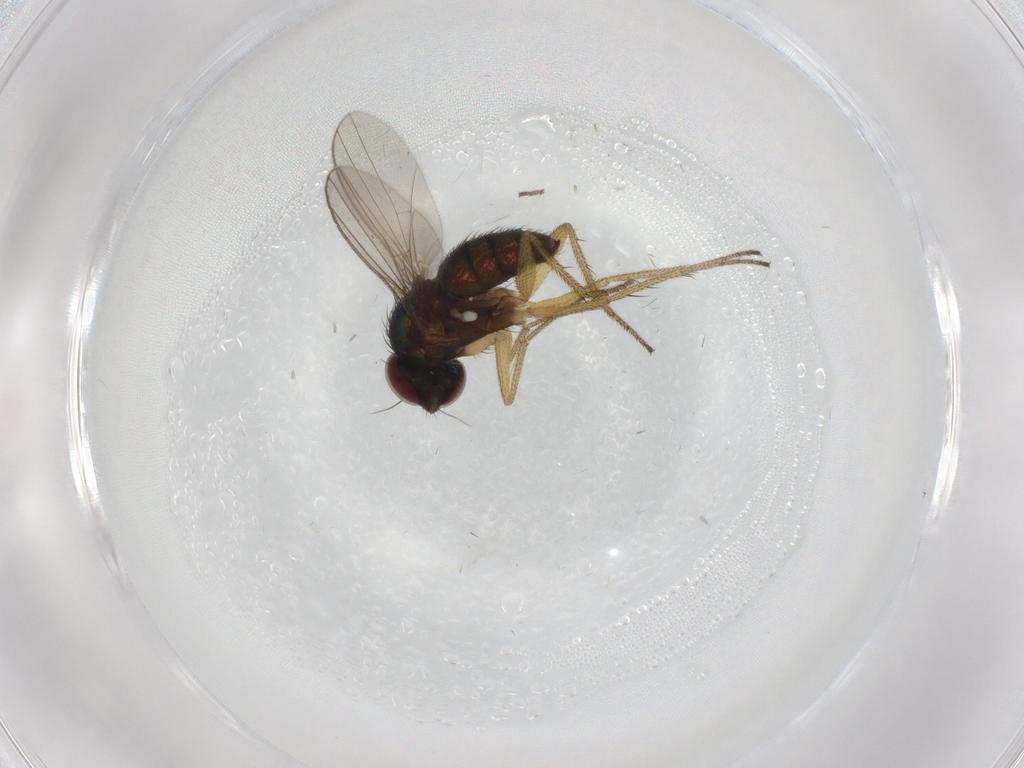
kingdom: Animalia
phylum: Arthropoda
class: Insecta
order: Diptera
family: Dolichopodidae
